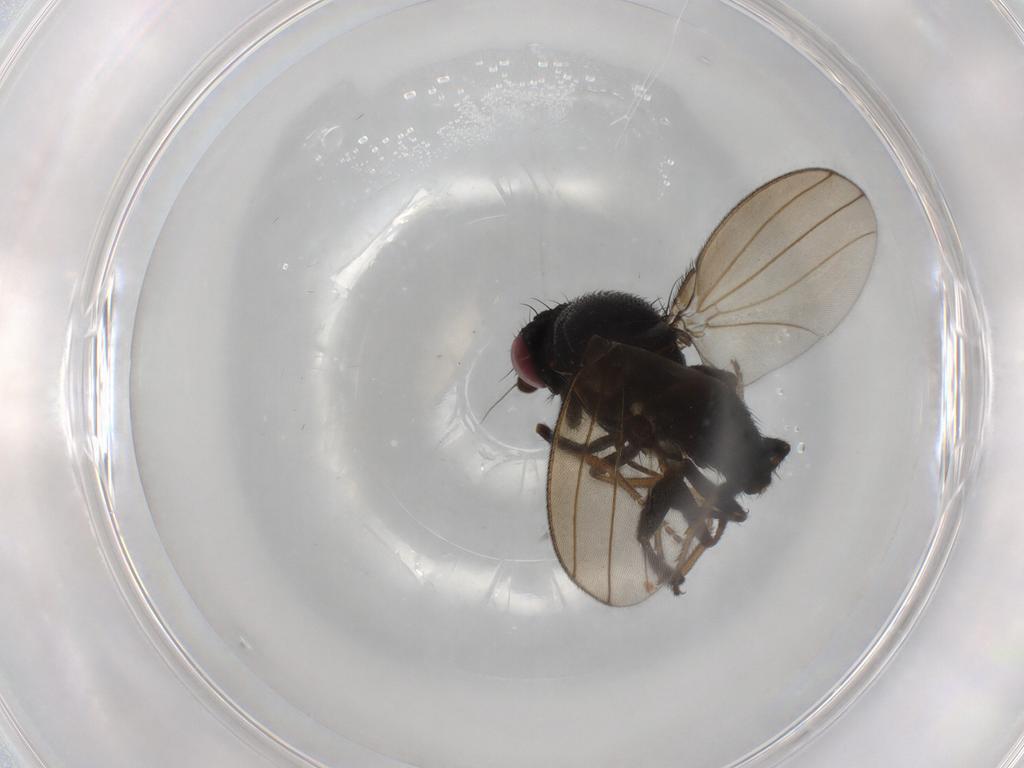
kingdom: Animalia
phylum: Arthropoda
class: Insecta
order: Diptera
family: Milichiidae
